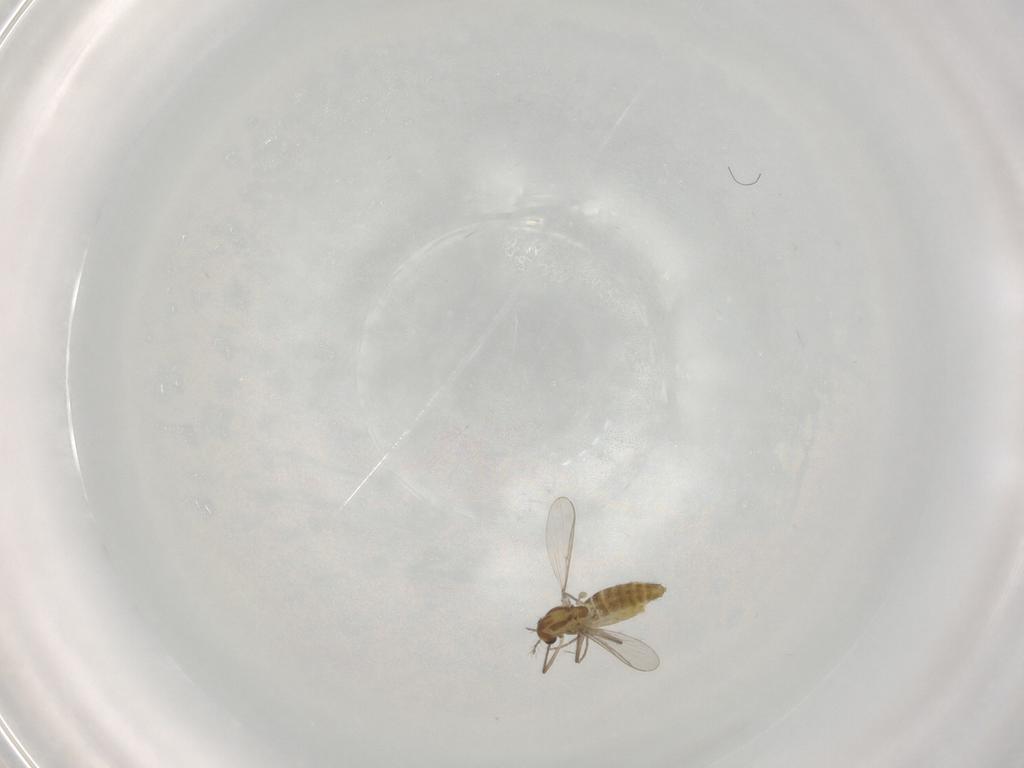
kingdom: Animalia
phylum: Arthropoda
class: Insecta
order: Diptera
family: Chironomidae
